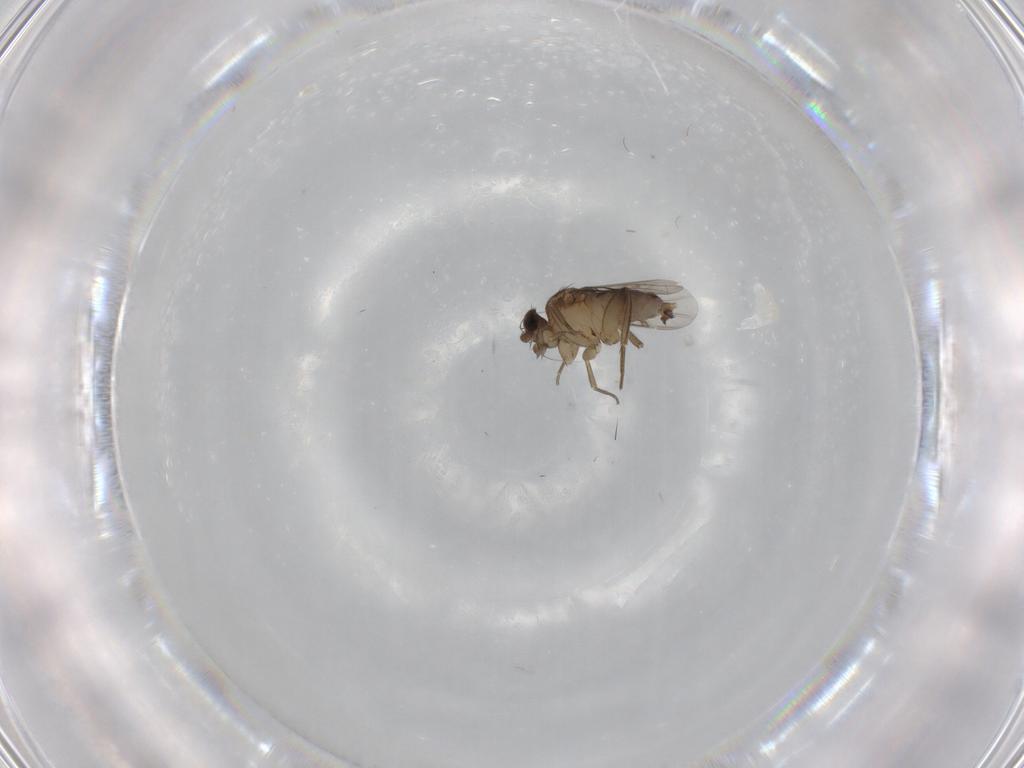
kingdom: Animalia
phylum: Arthropoda
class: Insecta
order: Diptera
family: Phoridae
